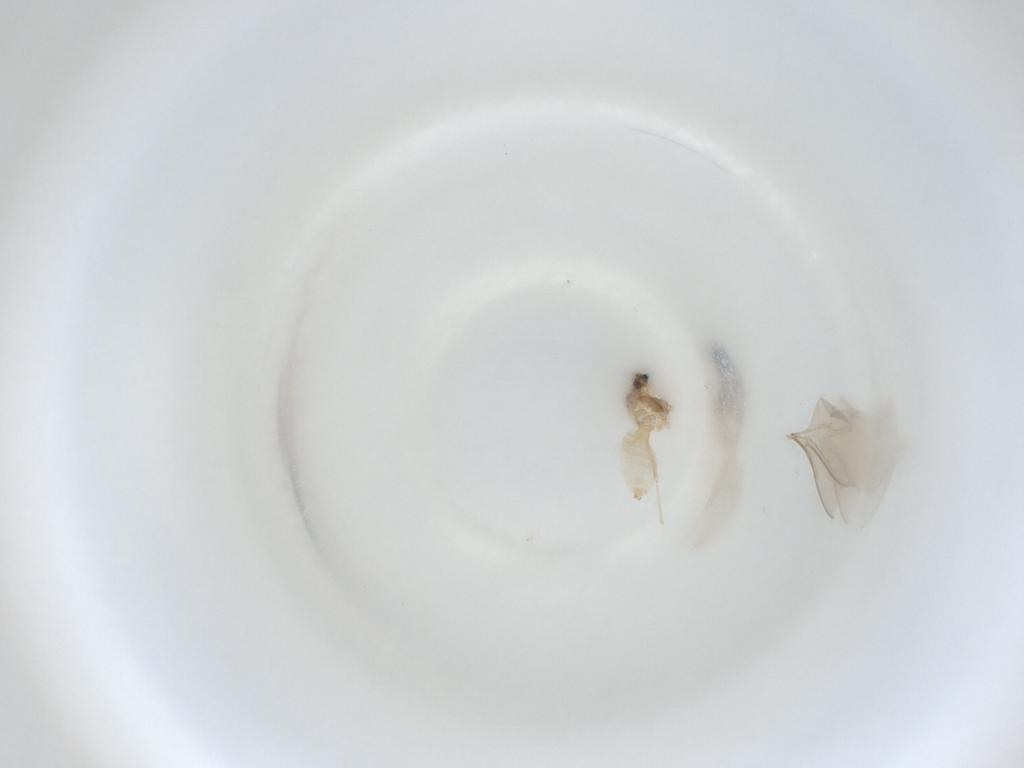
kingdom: Animalia
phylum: Arthropoda
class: Insecta
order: Diptera
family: Cecidomyiidae
